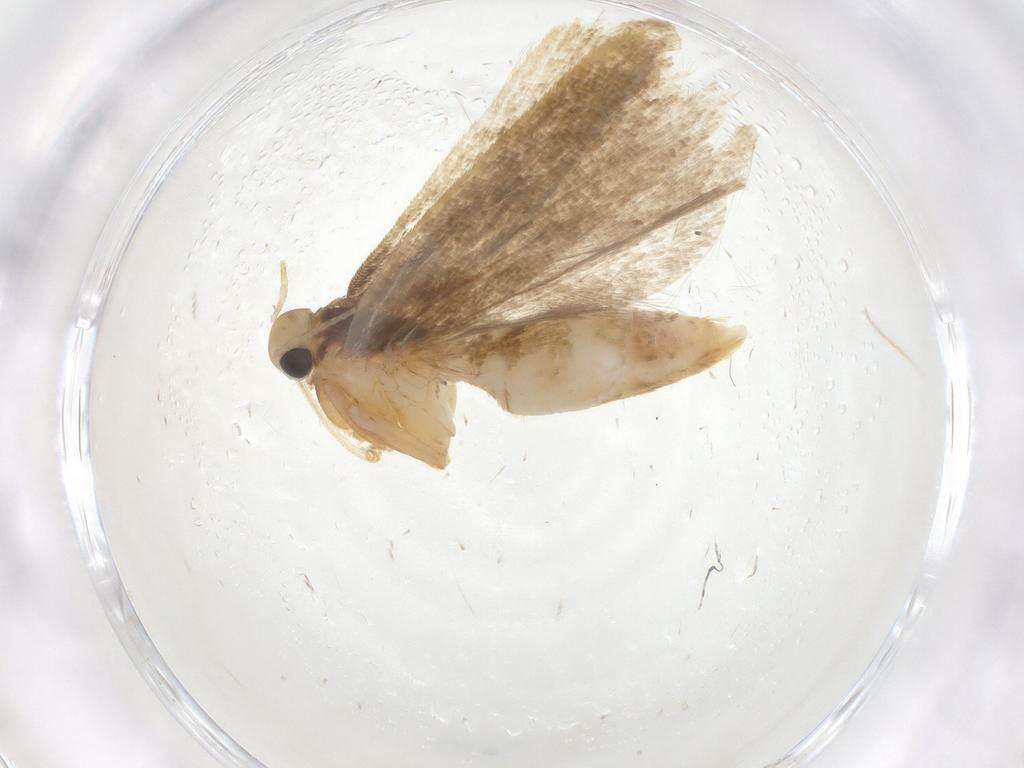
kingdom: Animalia
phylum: Arthropoda
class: Insecta
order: Lepidoptera
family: Gelechiidae
